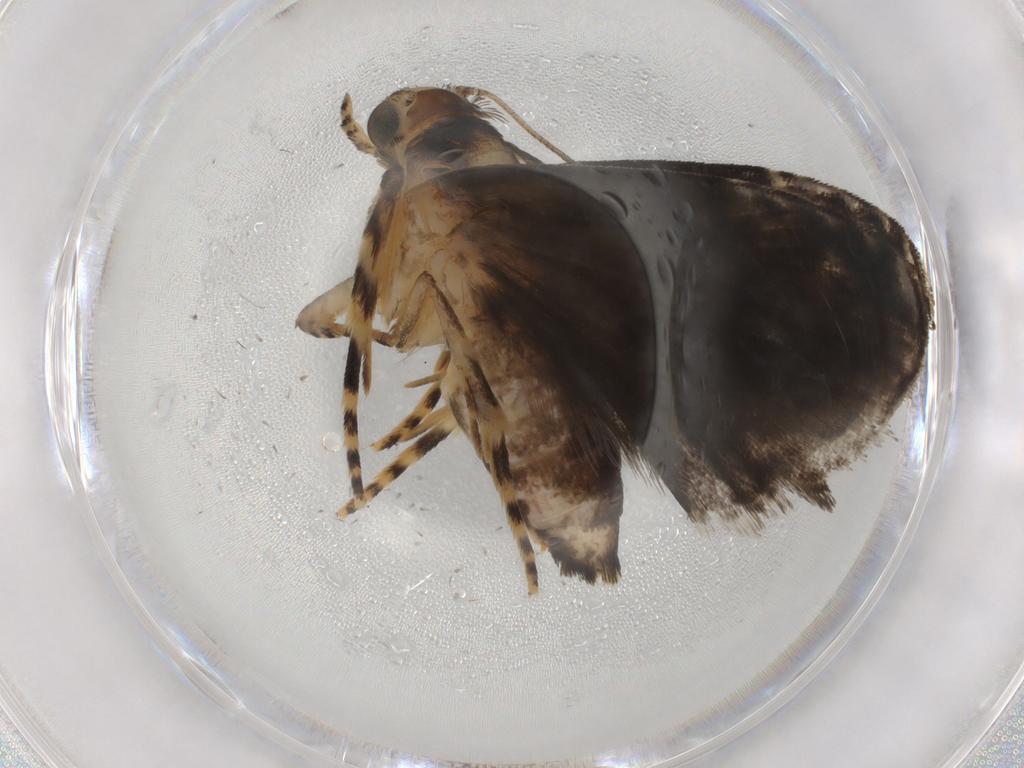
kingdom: Animalia
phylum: Arthropoda
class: Insecta
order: Lepidoptera
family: Immidae
